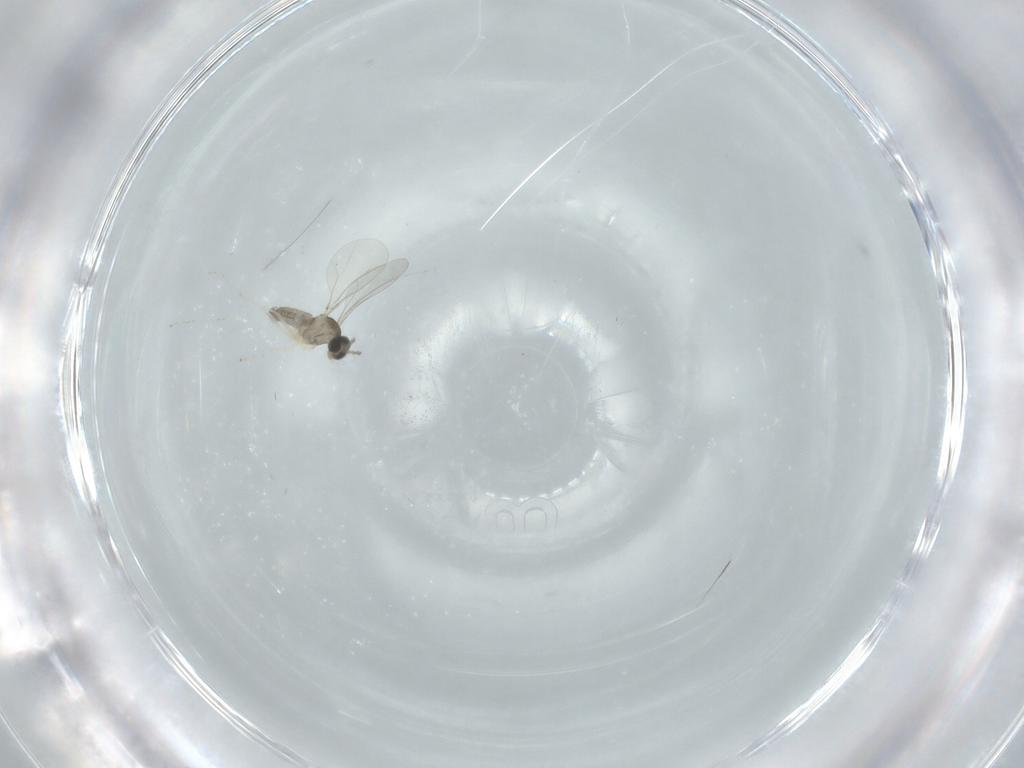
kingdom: Animalia
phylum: Arthropoda
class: Insecta
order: Diptera
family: Cecidomyiidae
